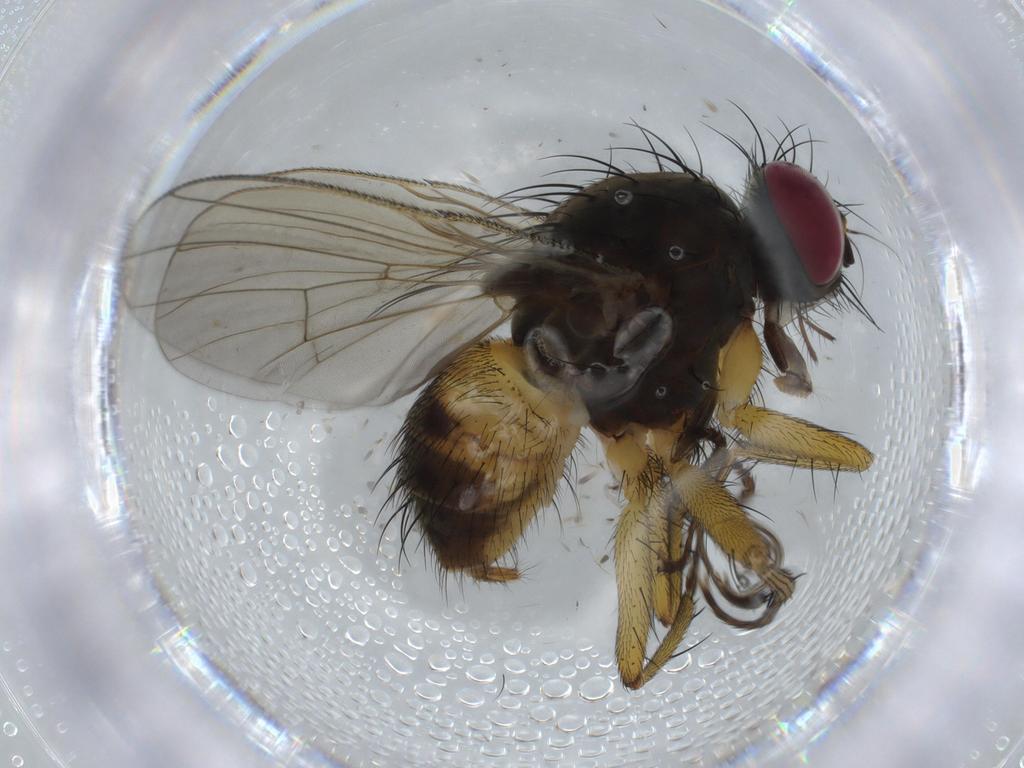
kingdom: Animalia
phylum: Arthropoda
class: Insecta
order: Diptera
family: Muscidae
